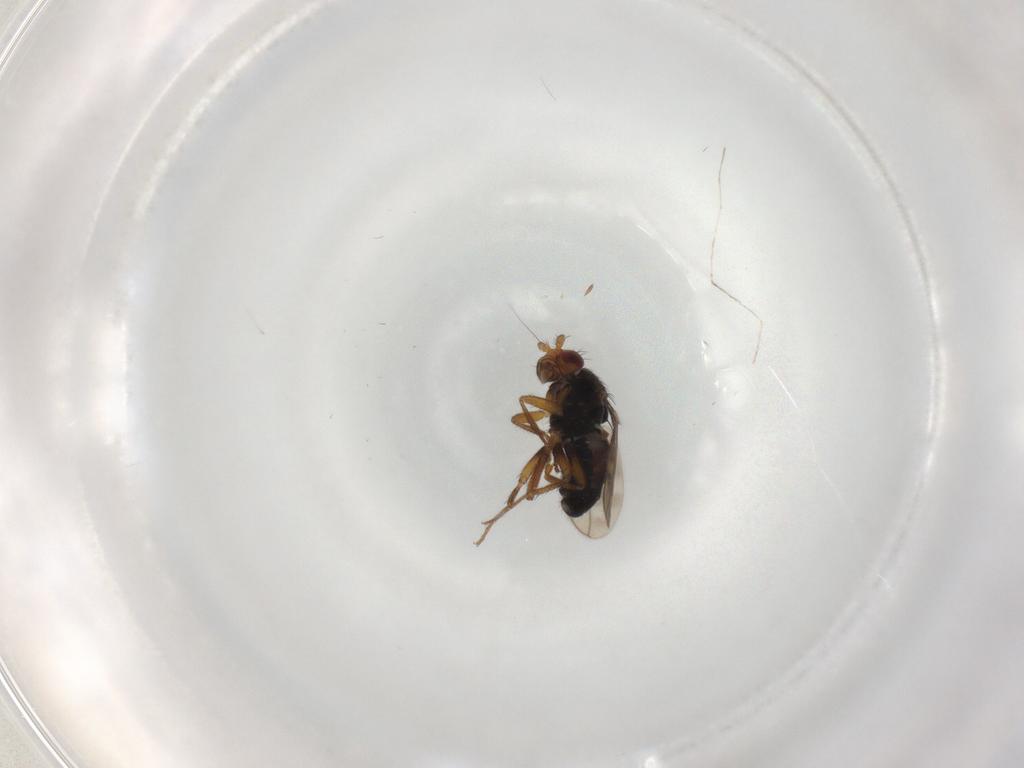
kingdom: Animalia
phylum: Arthropoda
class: Insecta
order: Diptera
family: Sphaeroceridae
